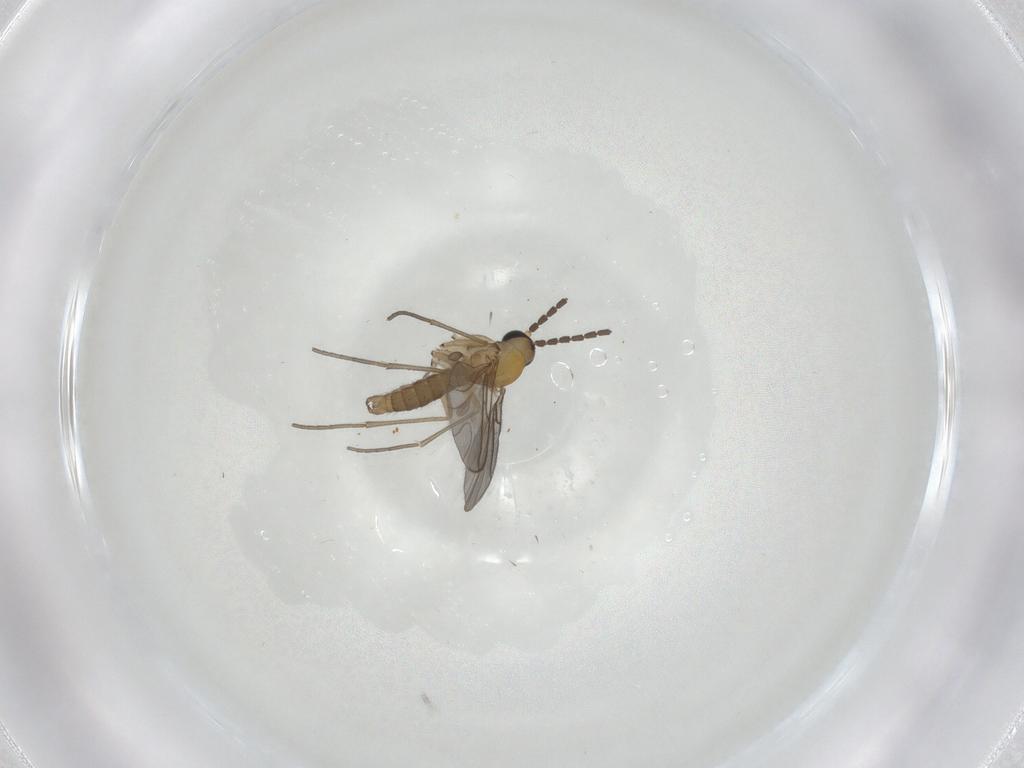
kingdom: Animalia
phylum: Arthropoda
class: Insecta
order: Diptera
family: Sciaridae
